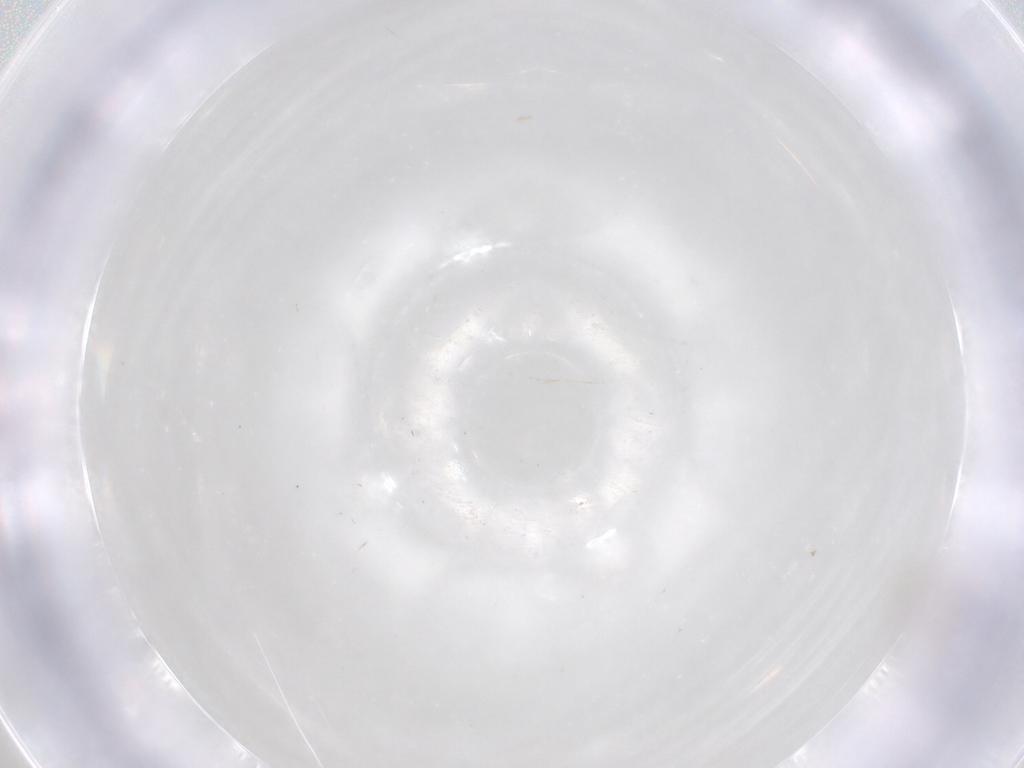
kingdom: Animalia
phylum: Arthropoda
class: Insecta
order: Diptera
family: Cecidomyiidae
